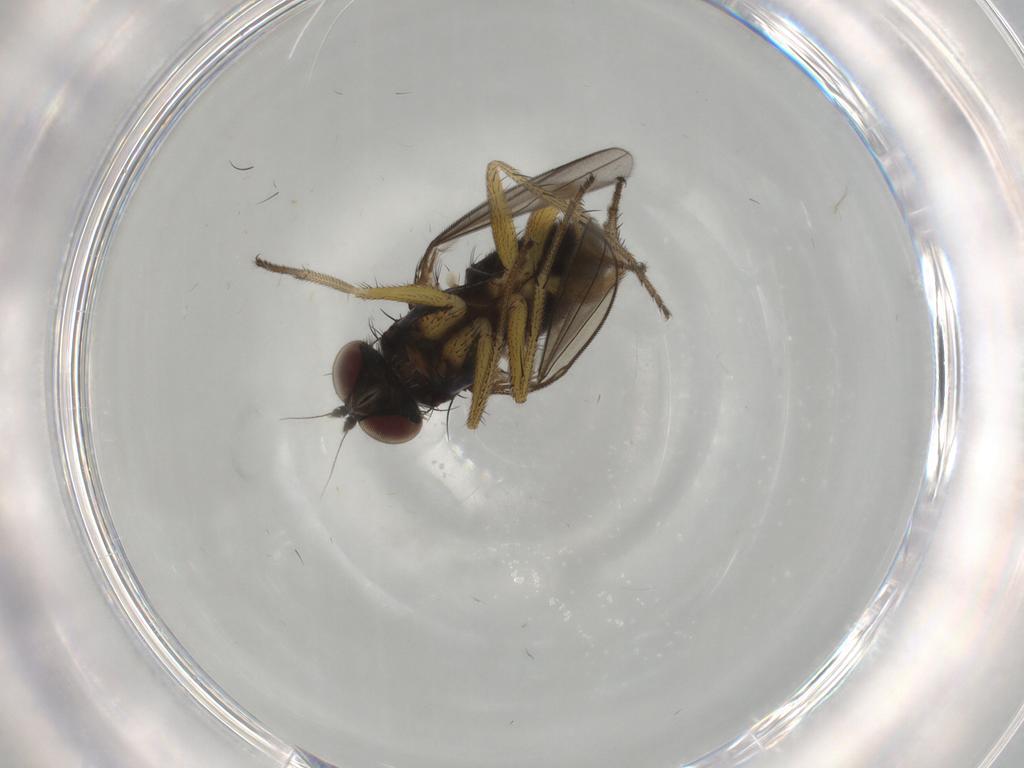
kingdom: Animalia
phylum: Arthropoda
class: Insecta
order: Diptera
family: Dolichopodidae
